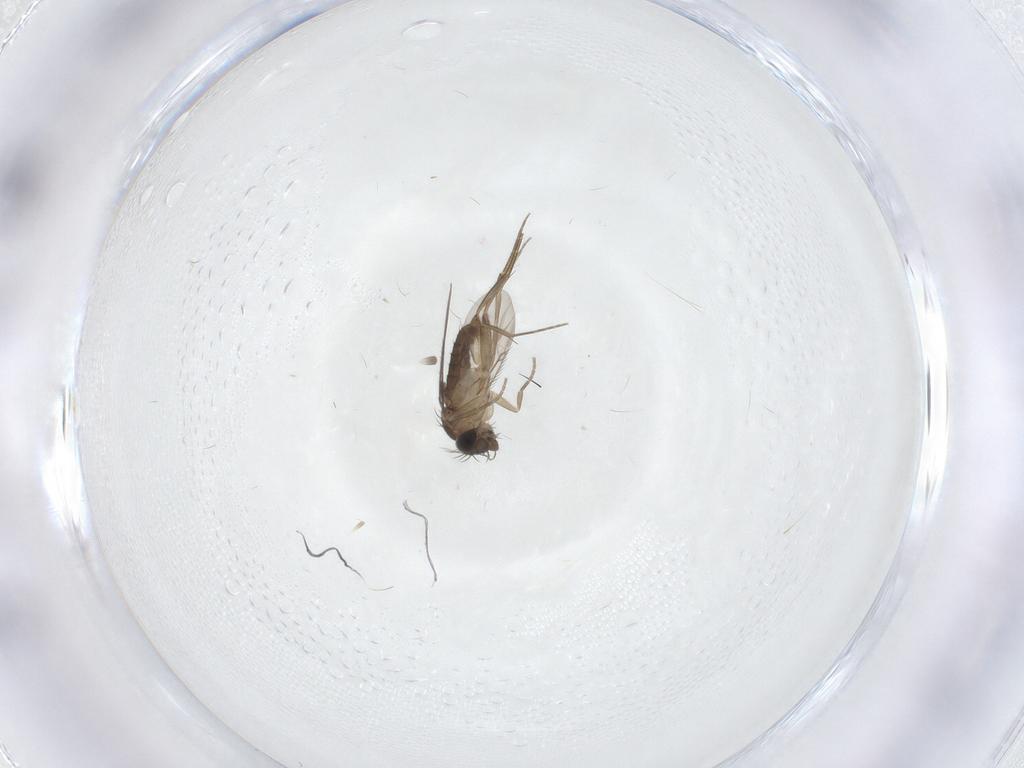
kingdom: Animalia
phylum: Arthropoda
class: Insecta
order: Diptera
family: Phoridae
